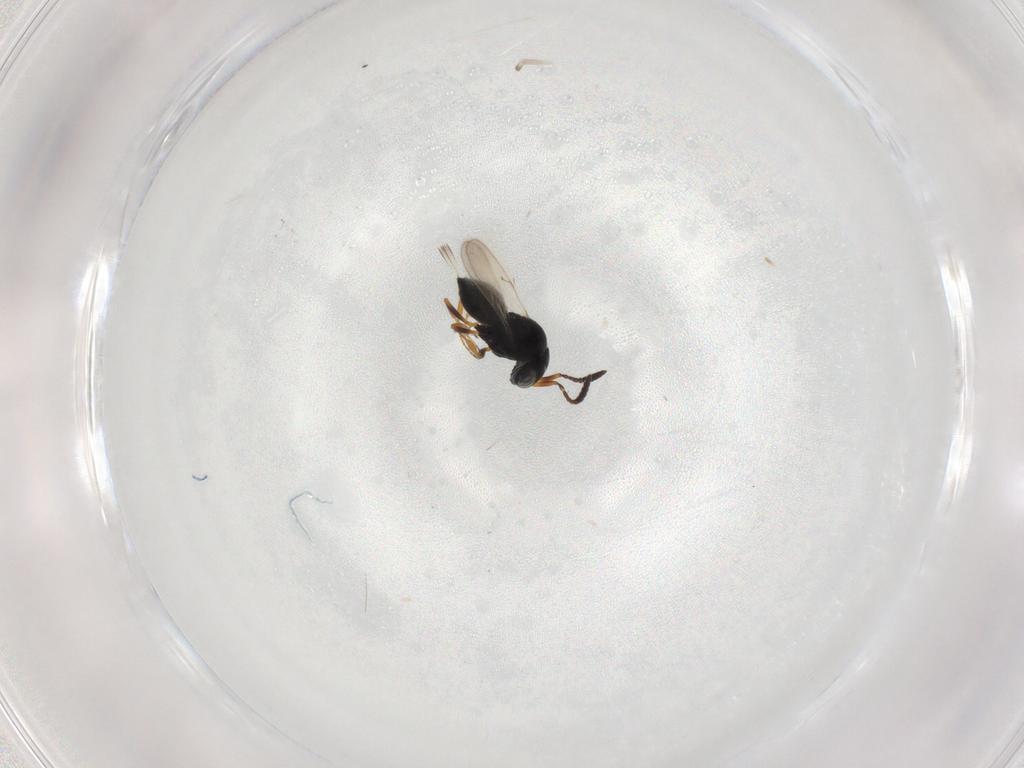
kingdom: Animalia
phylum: Arthropoda
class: Insecta
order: Hymenoptera
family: Scelionidae
